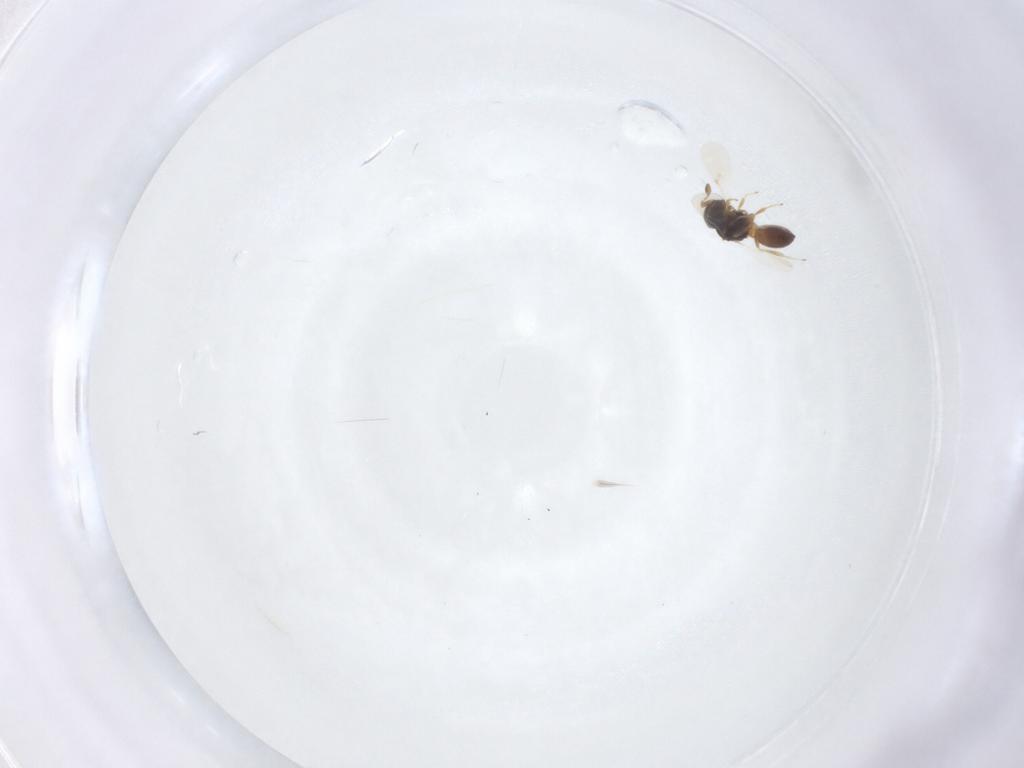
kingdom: Animalia
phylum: Arthropoda
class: Insecta
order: Hymenoptera
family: Scelionidae
